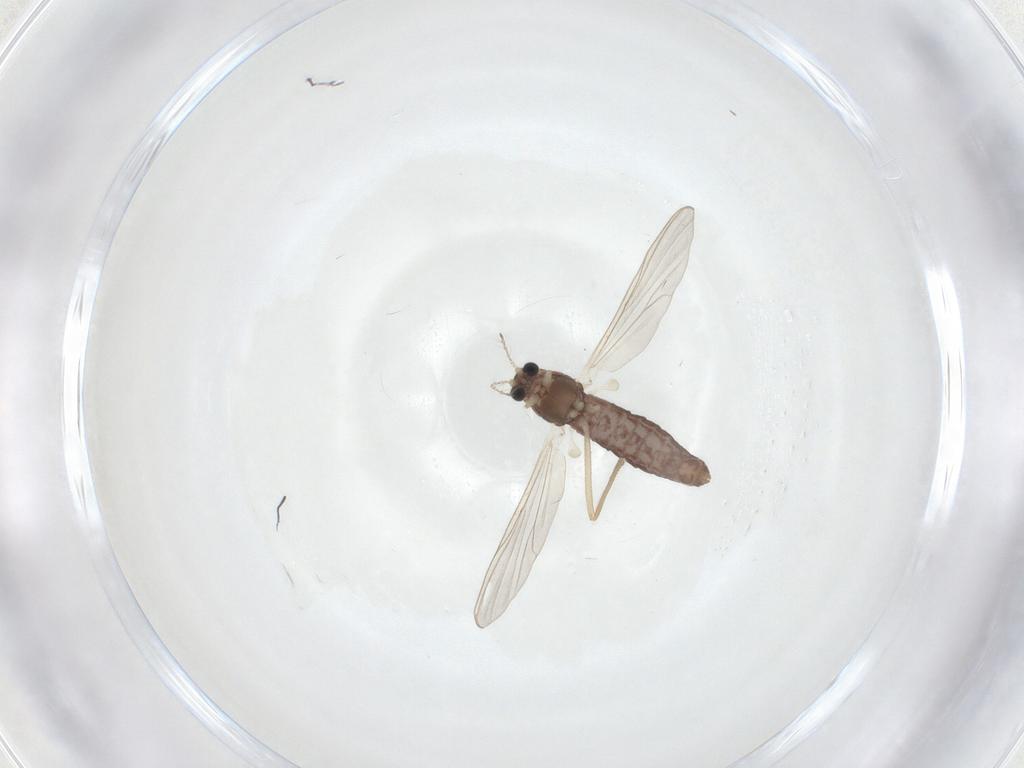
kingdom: Animalia
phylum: Arthropoda
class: Insecta
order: Diptera
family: Chironomidae
